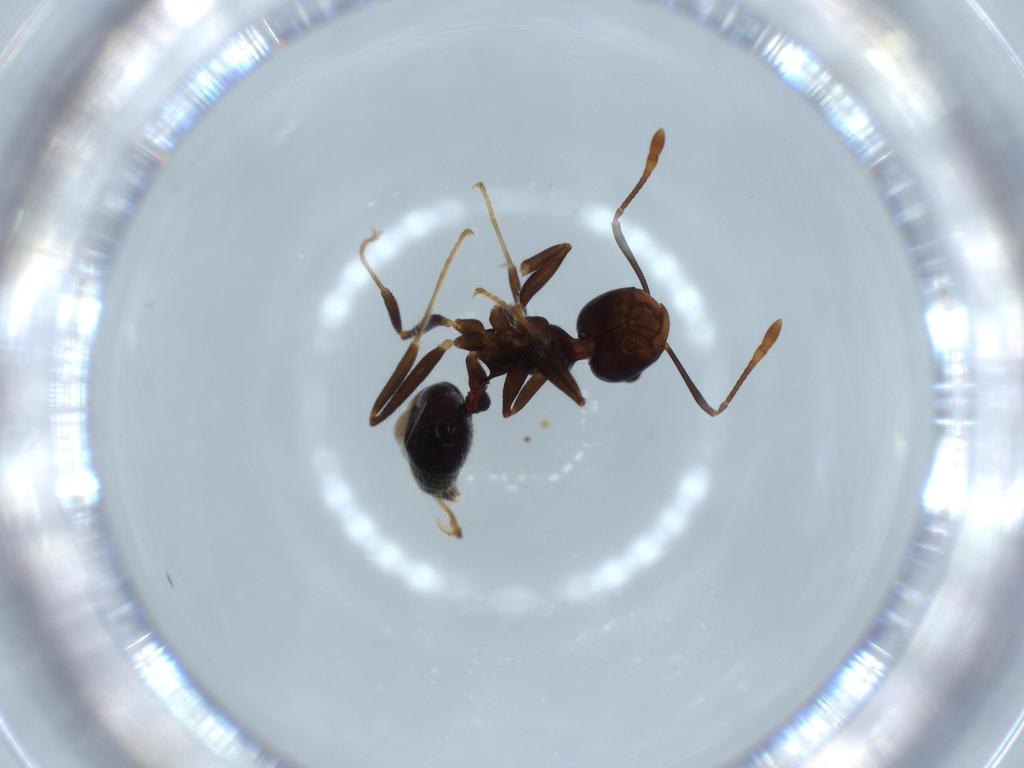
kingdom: Animalia
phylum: Arthropoda
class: Insecta
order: Hymenoptera
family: Formicidae
